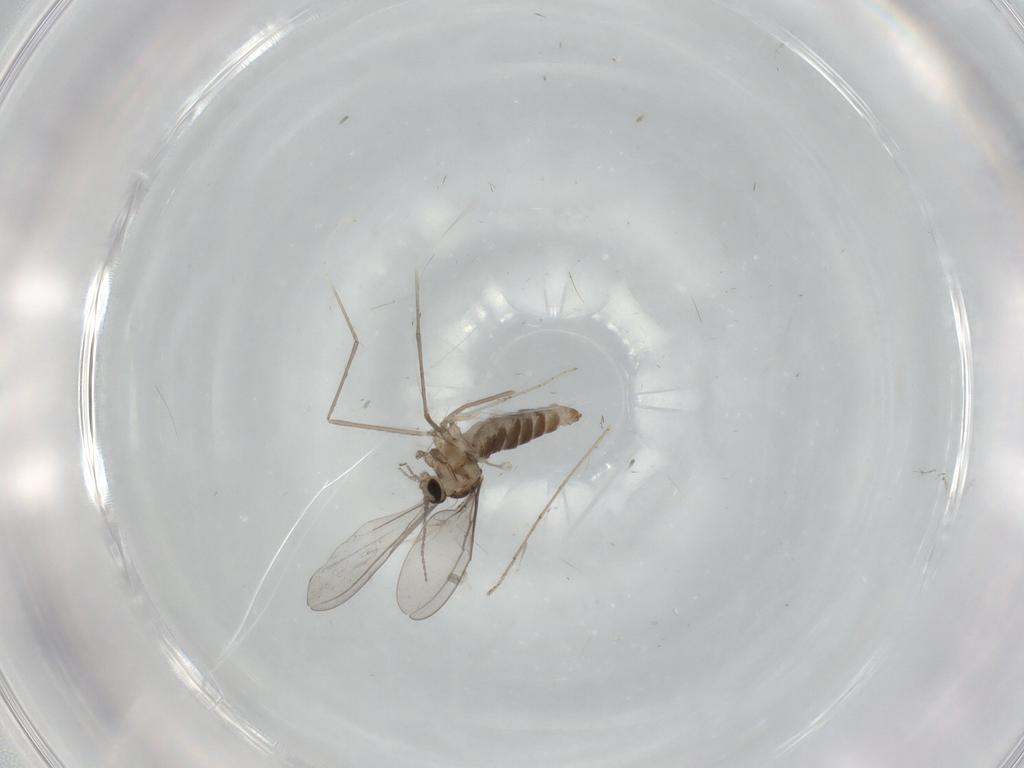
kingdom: Animalia
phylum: Arthropoda
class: Insecta
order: Diptera
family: Cecidomyiidae
